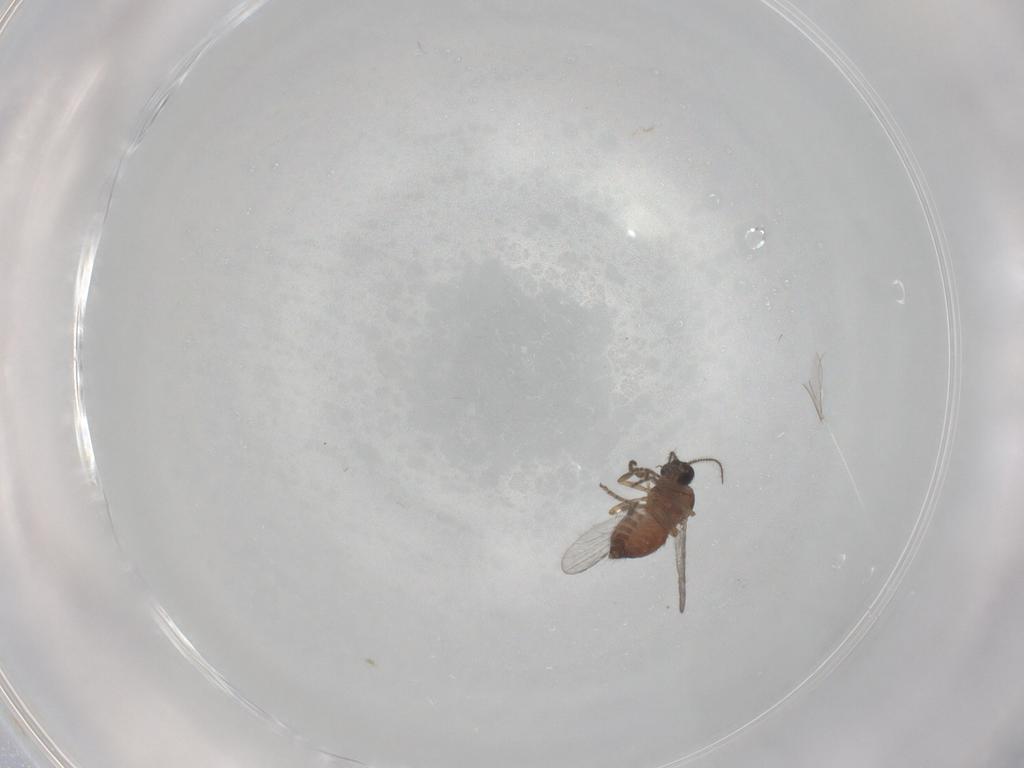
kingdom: Animalia
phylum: Arthropoda
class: Insecta
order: Diptera
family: Chironomidae
